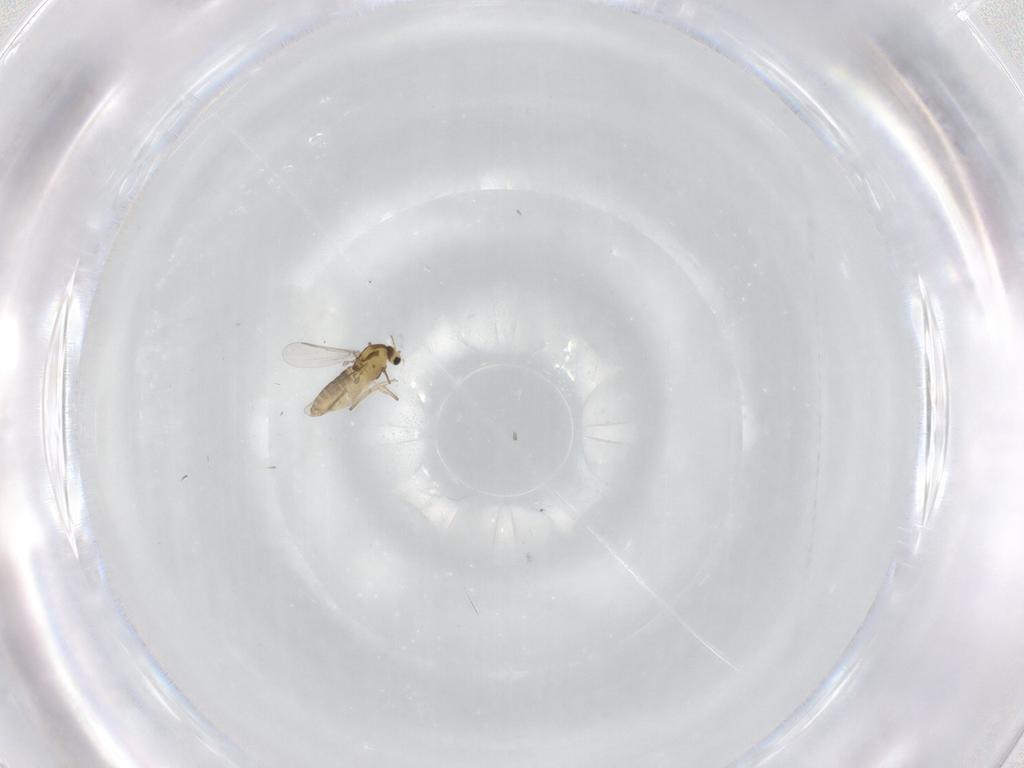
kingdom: Animalia
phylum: Arthropoda
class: Insecta
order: Diptera
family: Chironomidae
